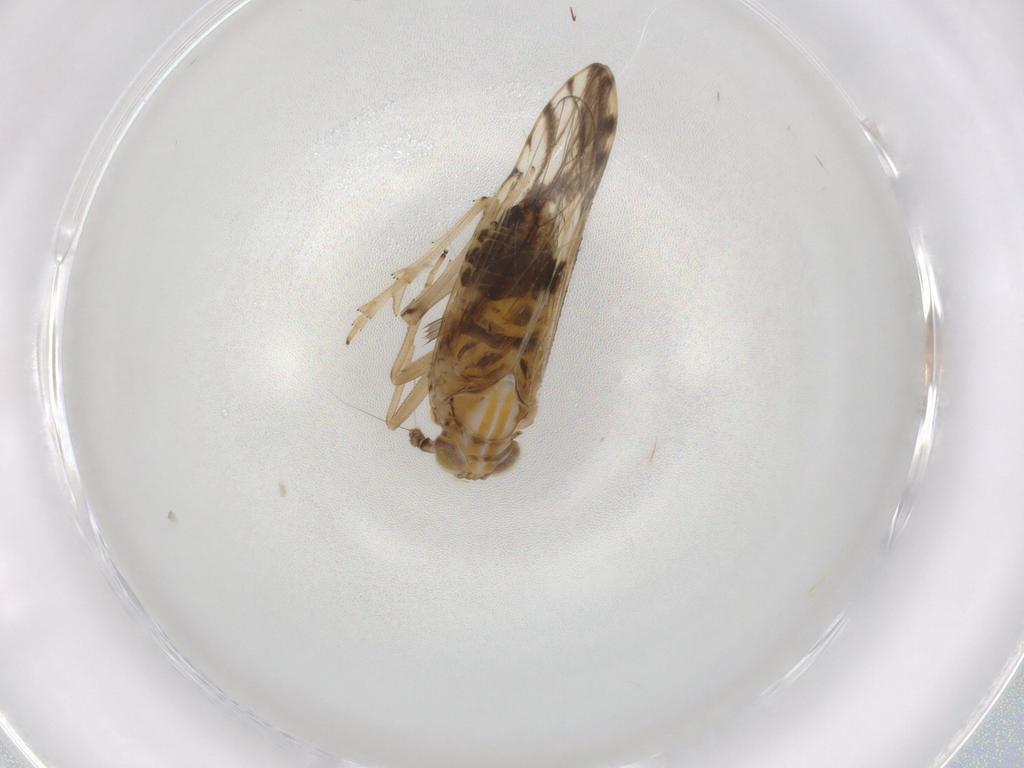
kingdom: Animalia
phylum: Arthropoda
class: Insecta
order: Hemiptera
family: Delphacidae
